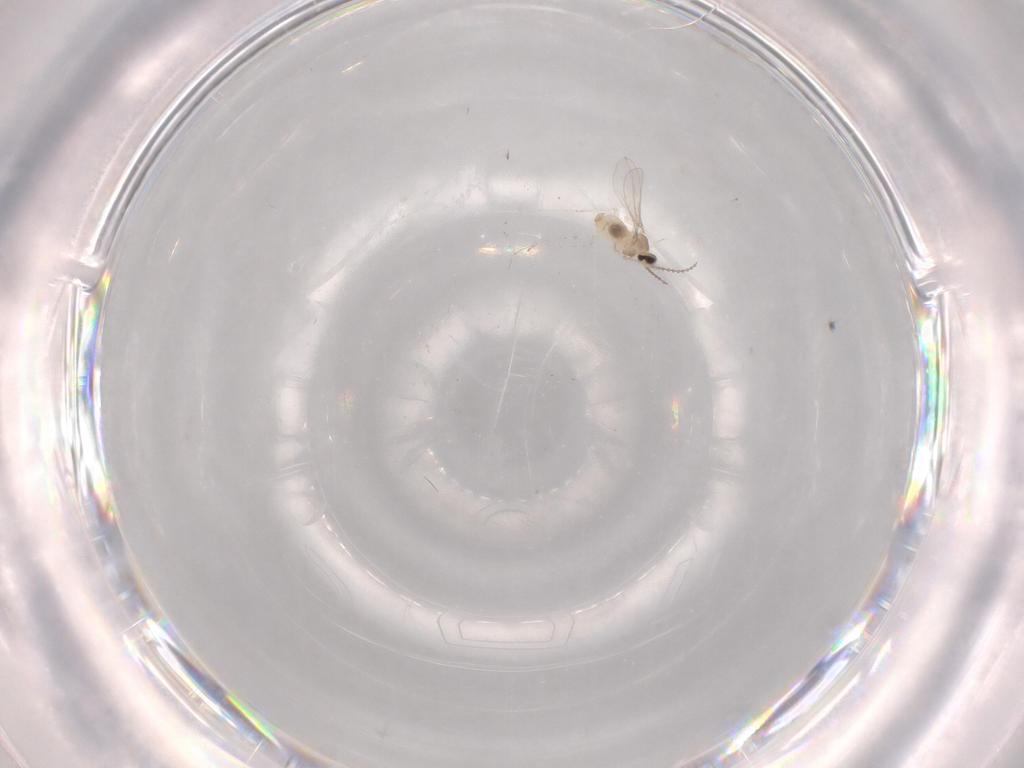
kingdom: Animalia
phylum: Arthropoda
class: Insecta
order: Diptera
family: Cecidomyiidae
